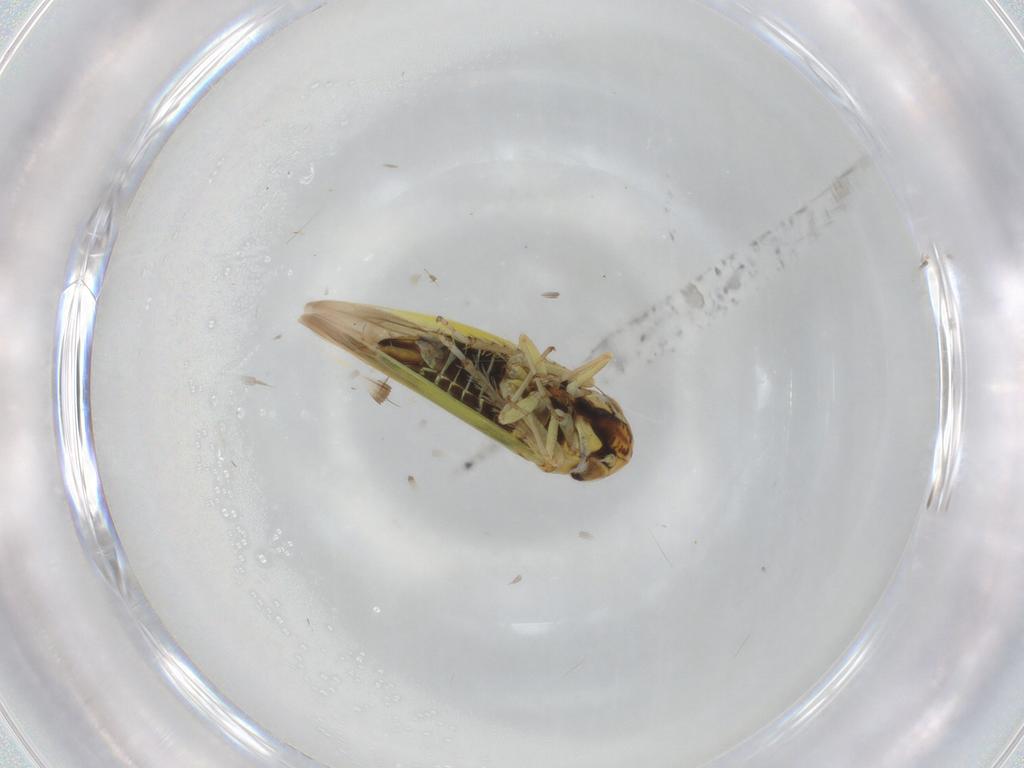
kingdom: Animalia
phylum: Arthropoda
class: Insecta
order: Hemiptera
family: Cicadellidae
